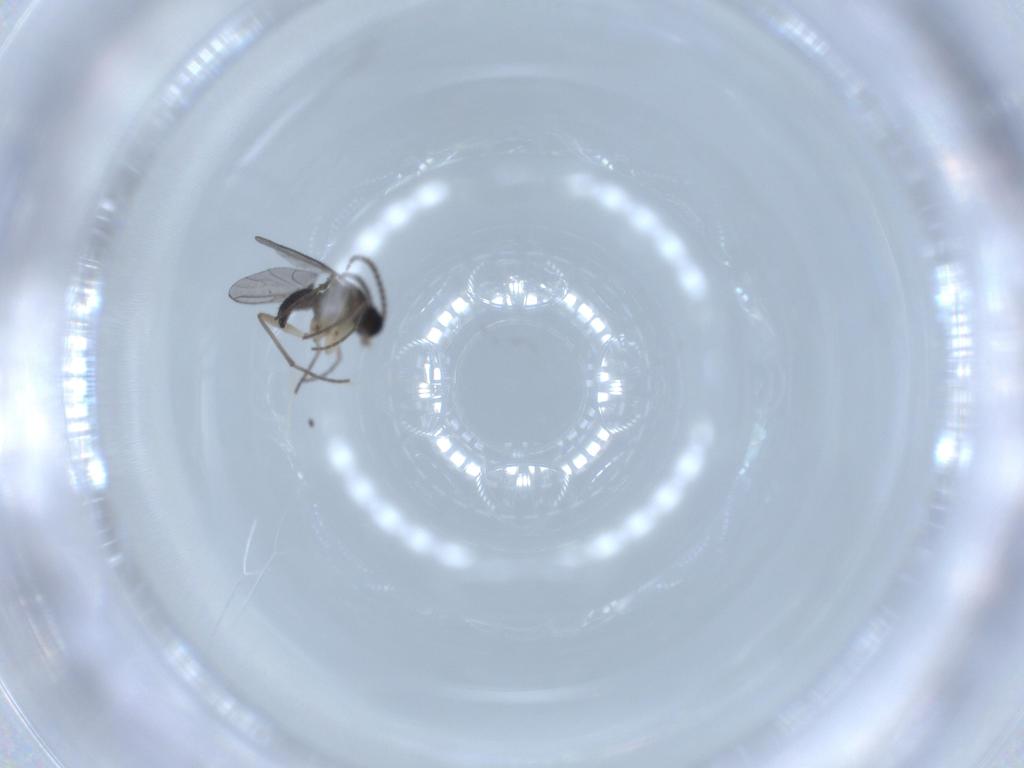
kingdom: Animalia
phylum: Arthropoda
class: Insecta
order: Diptera
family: Sciaridae
